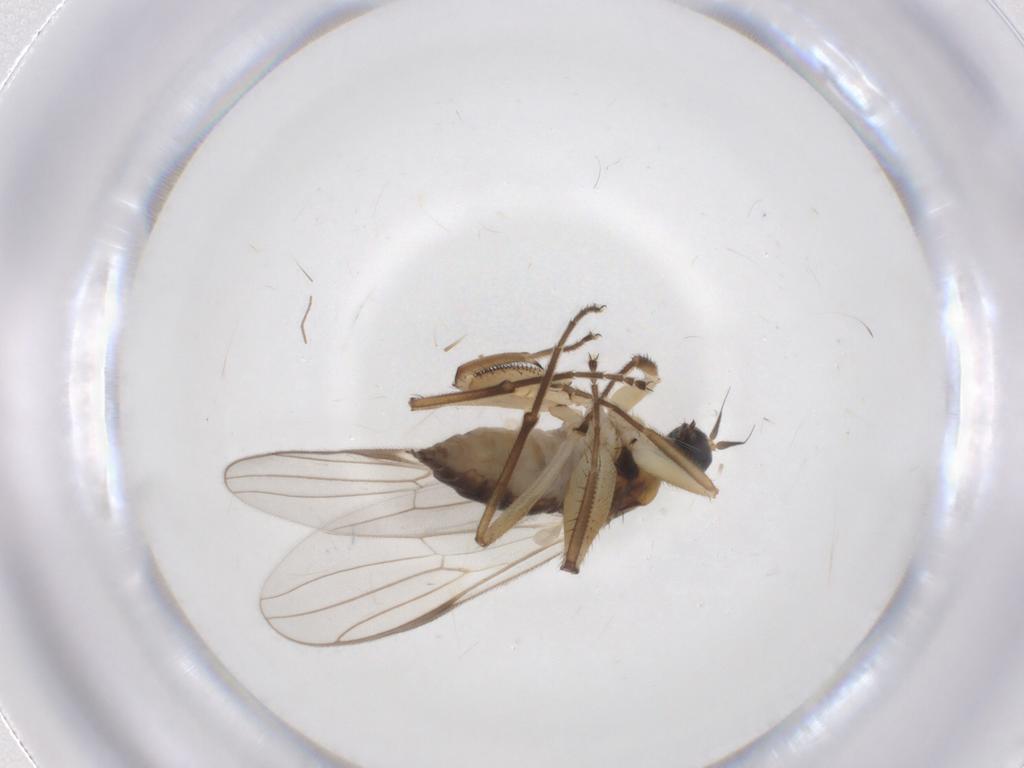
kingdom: Animalia
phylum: Arthropoda
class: Insecta
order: Diptera
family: Hybotidae
